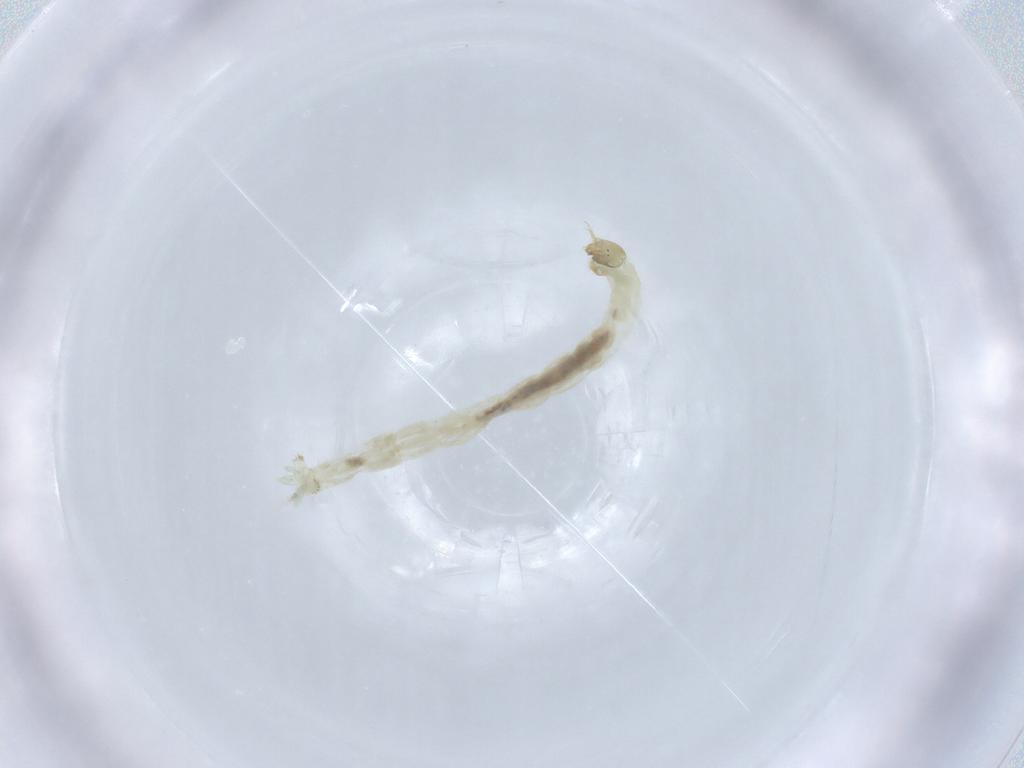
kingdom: Animalia
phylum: Arthropoda
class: Insecta
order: Diptera
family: Chironomidae
